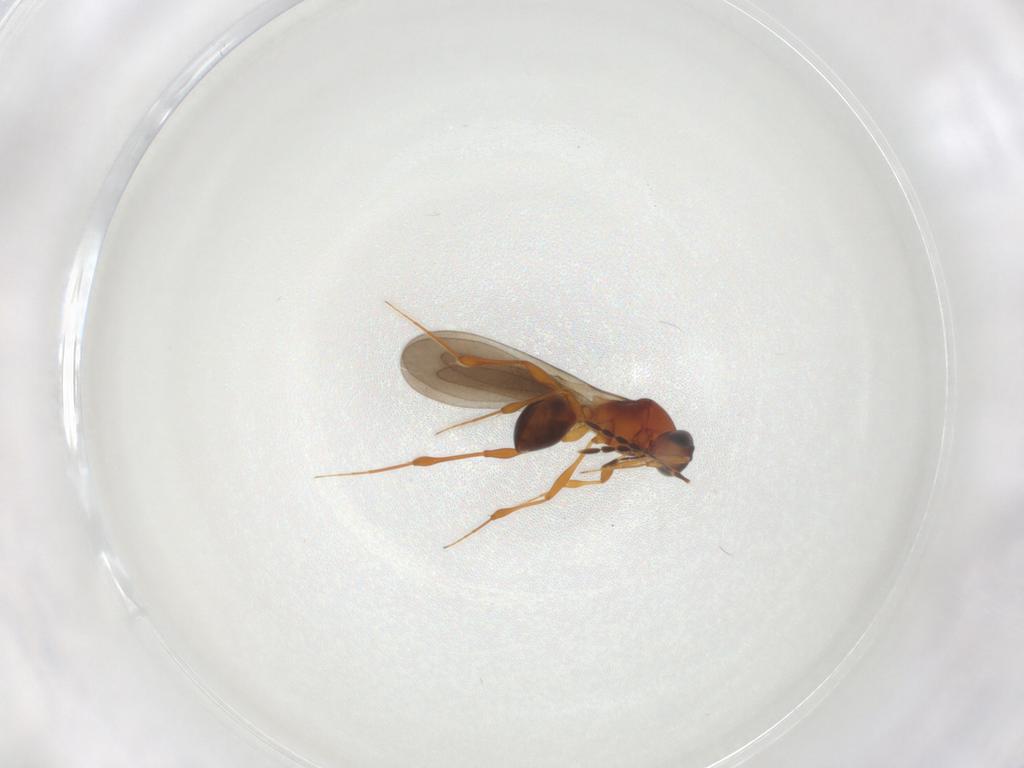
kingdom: Animalia
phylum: Arthropoda
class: Insecta
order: Hymenoptera
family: Platygastridae
